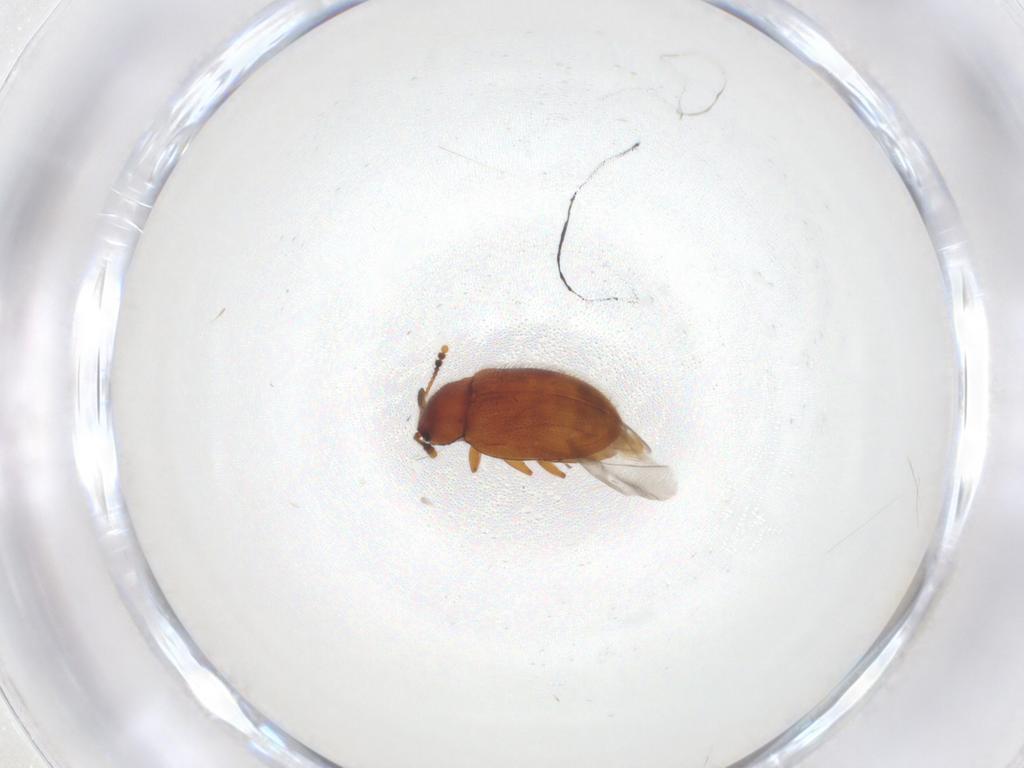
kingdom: Animalia
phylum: Arthropoda
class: Insecta
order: Coleoptera
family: Erotylidae
